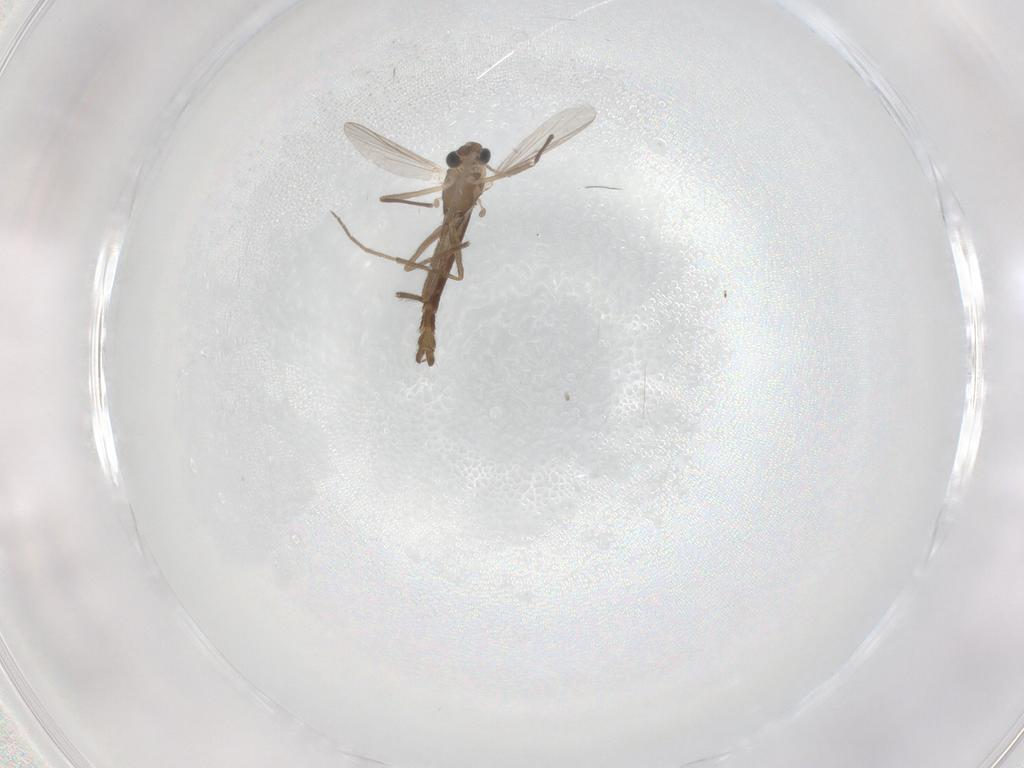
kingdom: Animalia
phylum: Arthropoda
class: Insecta
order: Diptera
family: Chironomidae
